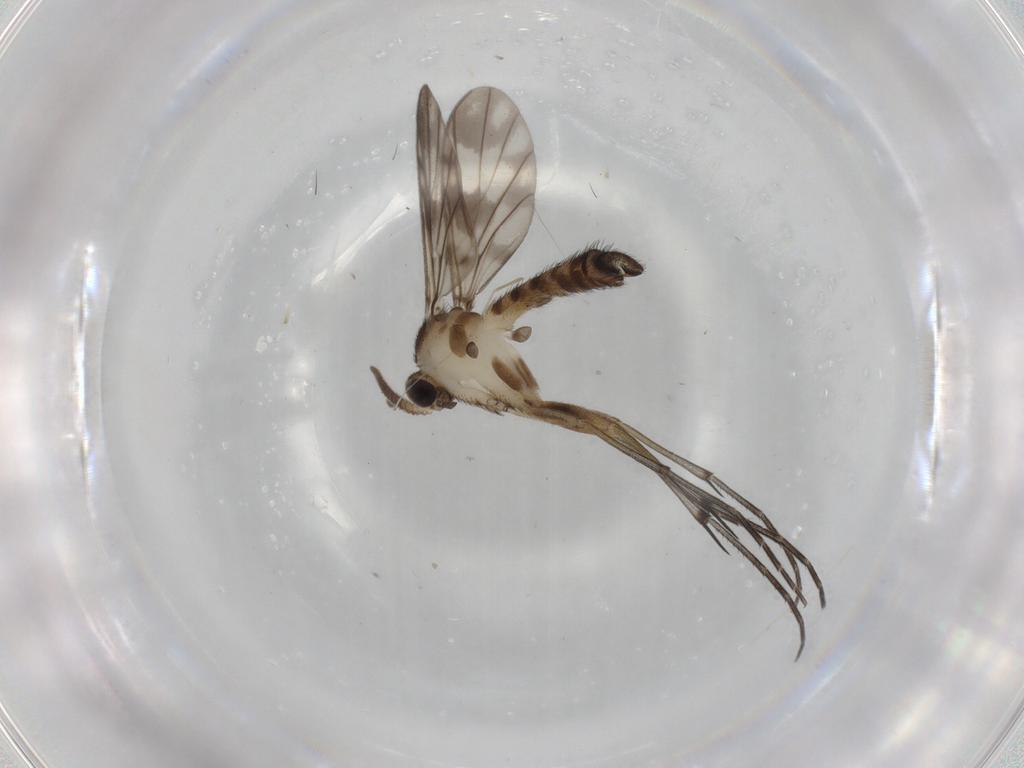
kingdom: Animalia
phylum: Arthropoda
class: Insecta
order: Diptera
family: Keroplatidae
